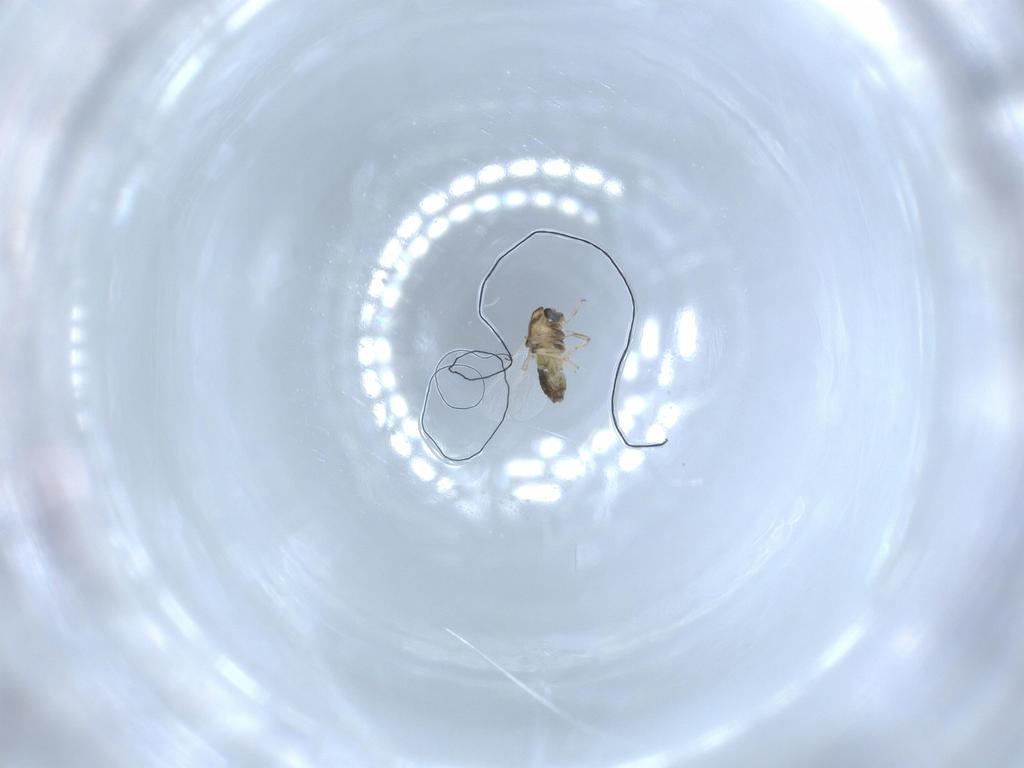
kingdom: Animalia
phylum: Arthropoda
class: Insecta
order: Diptera
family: Chironomidae
